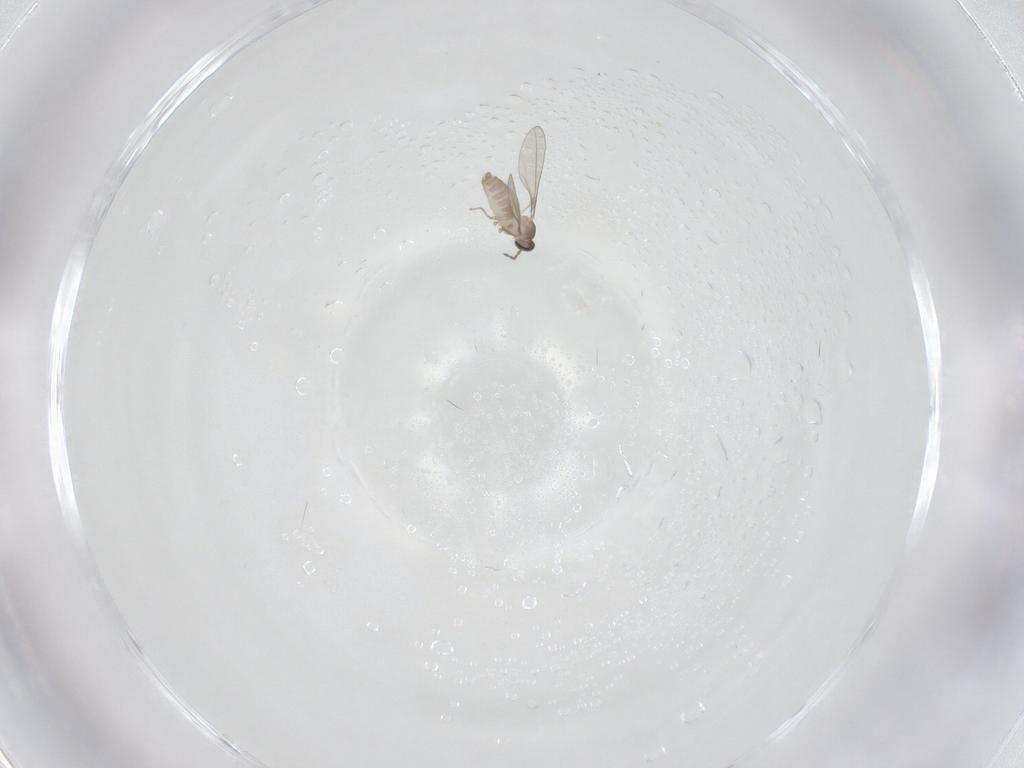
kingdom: Animalia
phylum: Arthropoda
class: Insecta
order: Diptera
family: Cecidomyiidae
